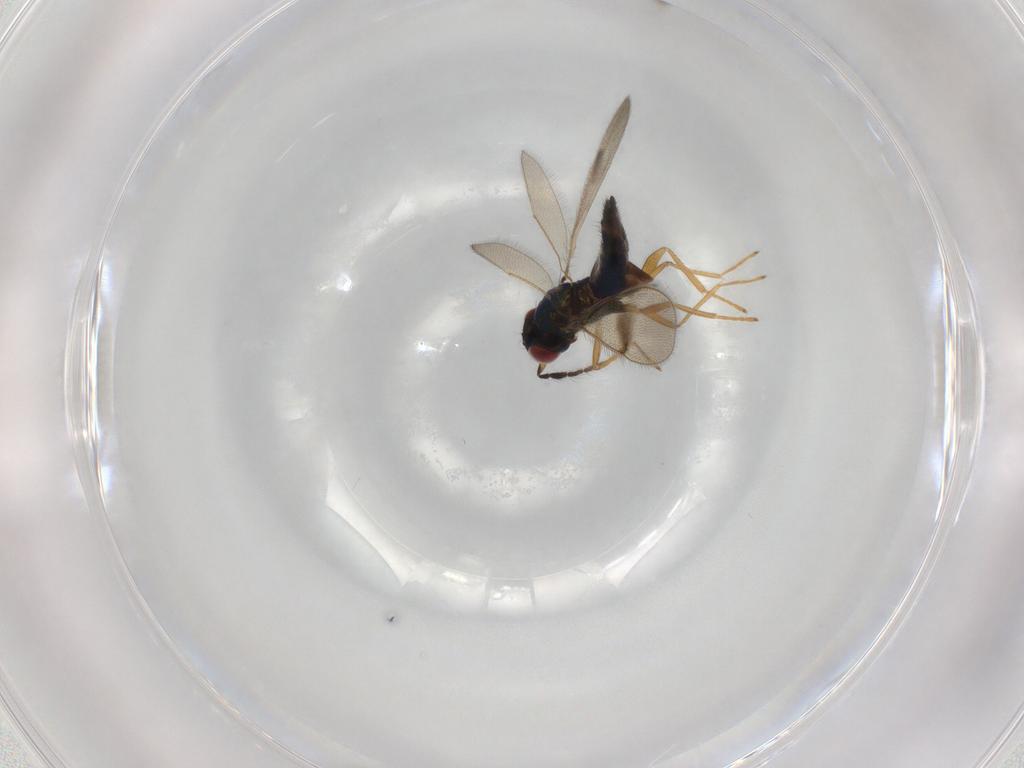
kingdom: Animalia
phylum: Arthropoda
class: Insecta
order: Hymenoptera
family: Eulophidae
